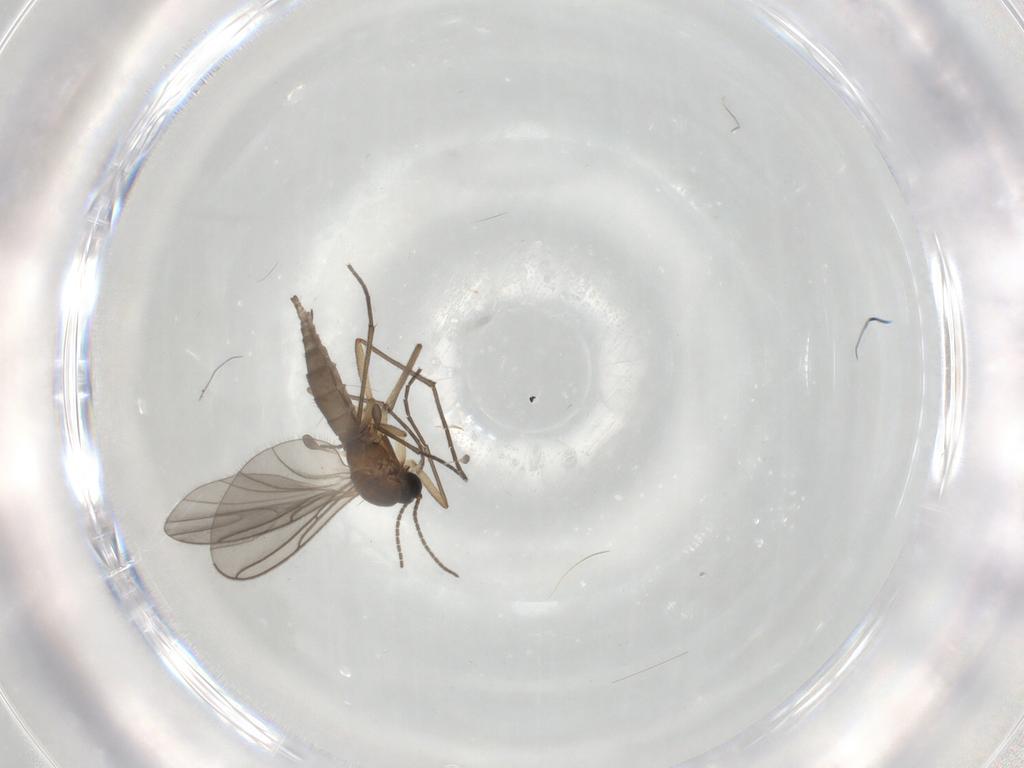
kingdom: Animalia
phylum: Arthropoda
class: Insecta
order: Diptera
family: Sciaridae
